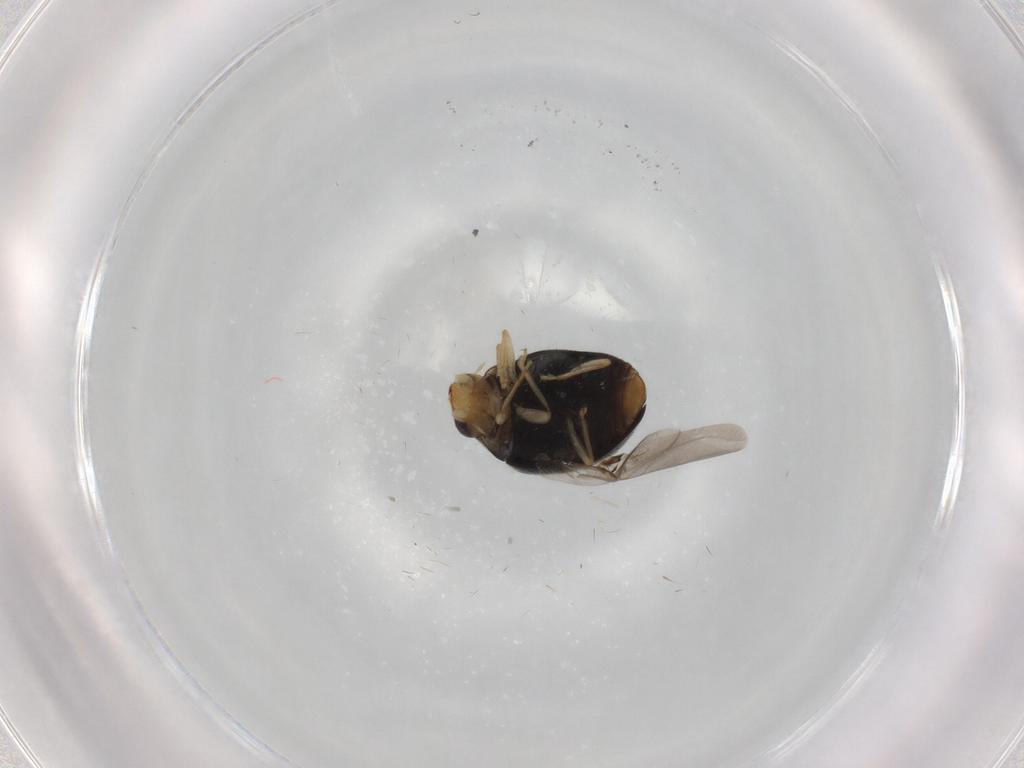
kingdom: Animalia
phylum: Arthropoda
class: Insecta
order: Coleoptera
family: Coccinellidae
